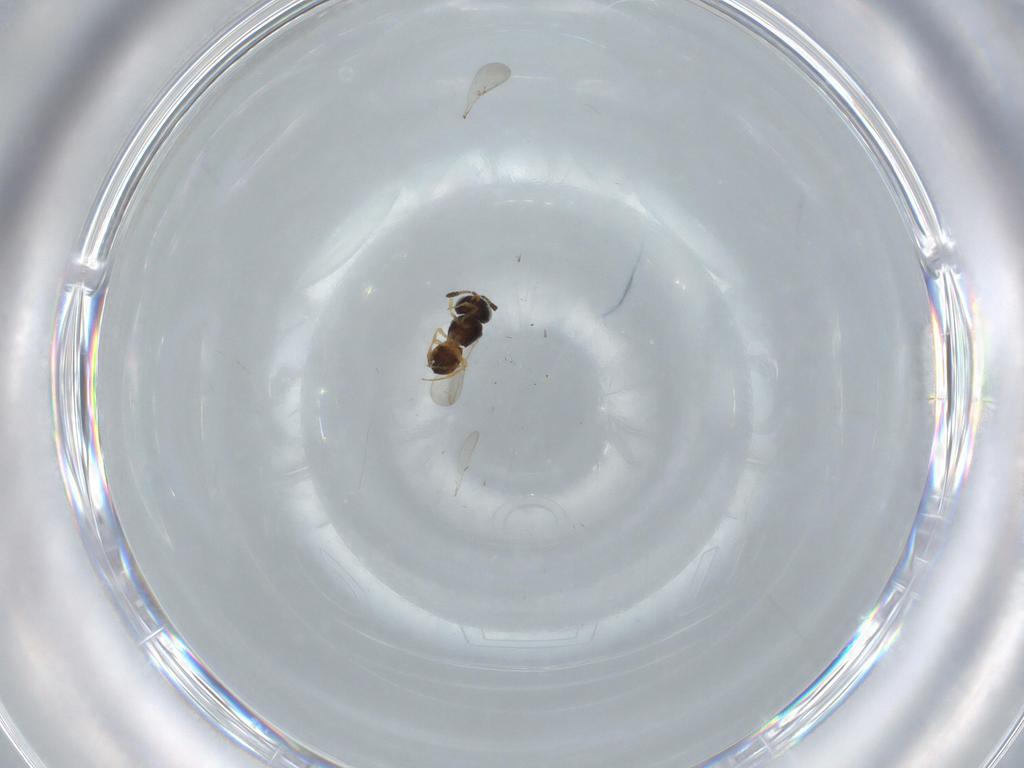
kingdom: Animalia
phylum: Arthropoda
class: Insecta
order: Hymenoptera
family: Scelionidae
